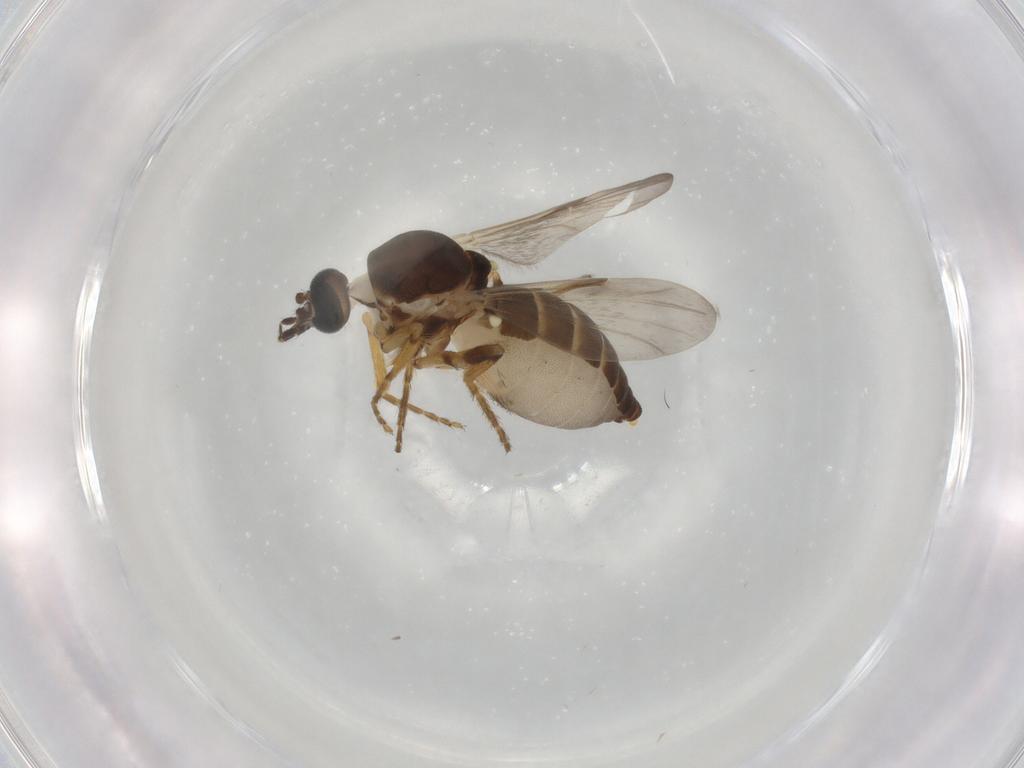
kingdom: Animalia
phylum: Arthropoda
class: Insecta
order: Diptera
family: Ceratopogonidae
